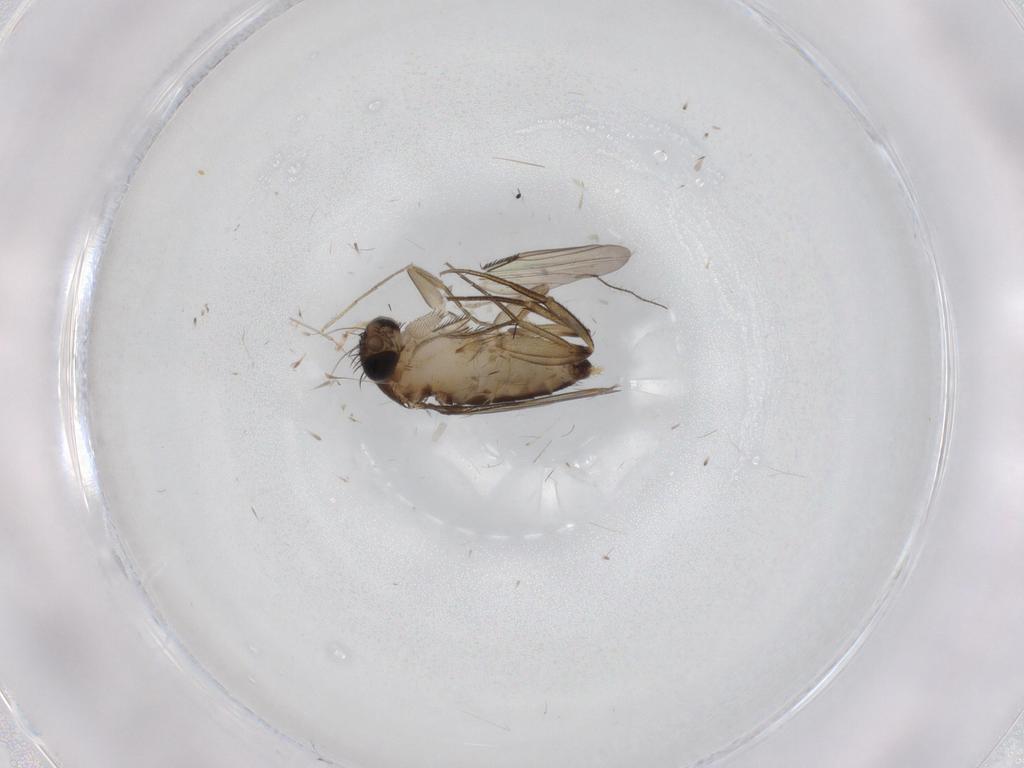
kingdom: Animalia
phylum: Arthropoda
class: Insecta
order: Diptera
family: Phoridae
